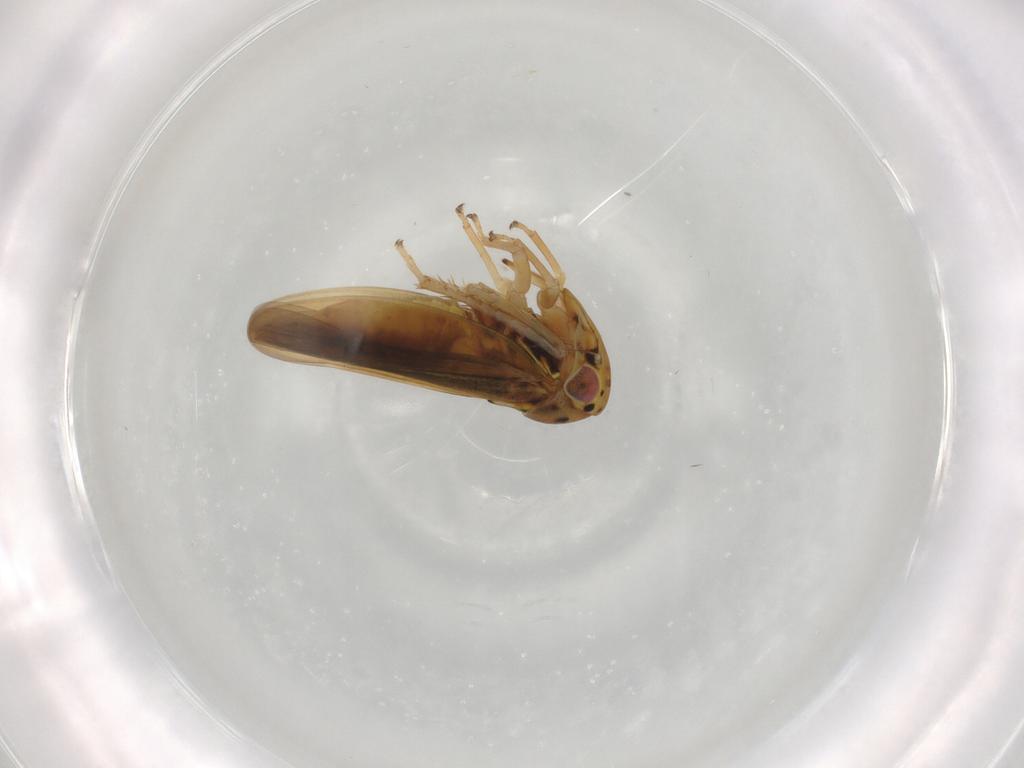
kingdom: Animalia
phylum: Arthropoda
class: Insecta
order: Hemiptera
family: Cicadellidae
